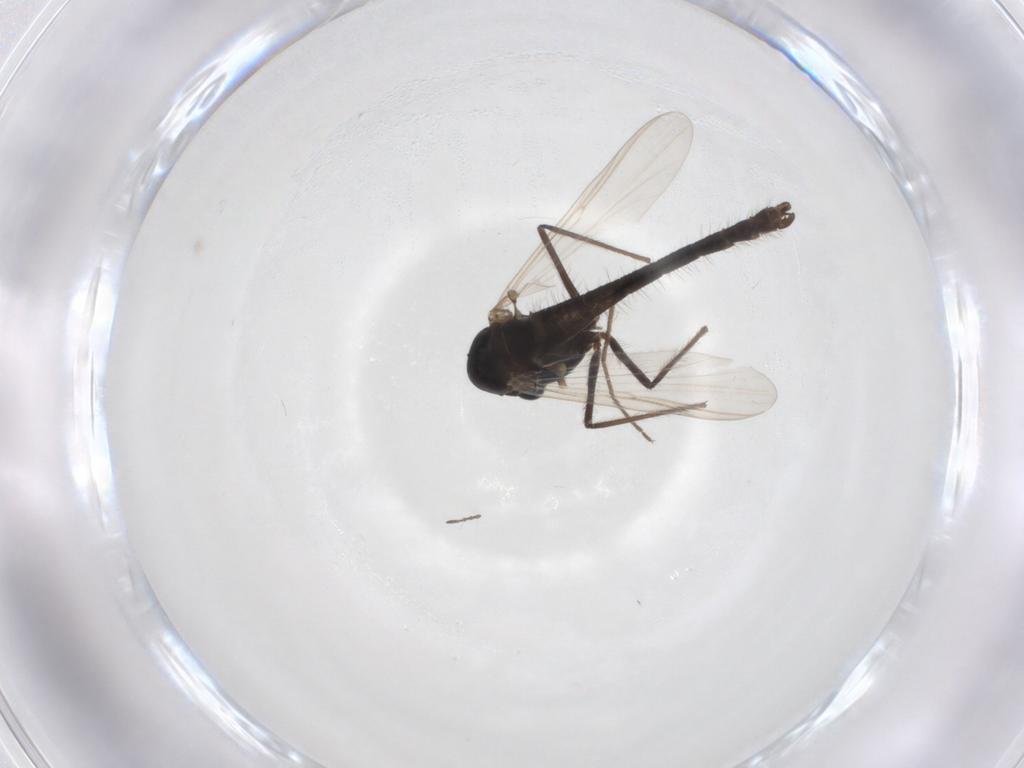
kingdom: Animalia
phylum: Arthropoda
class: Insecta
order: Diptera
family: Chironomidae
